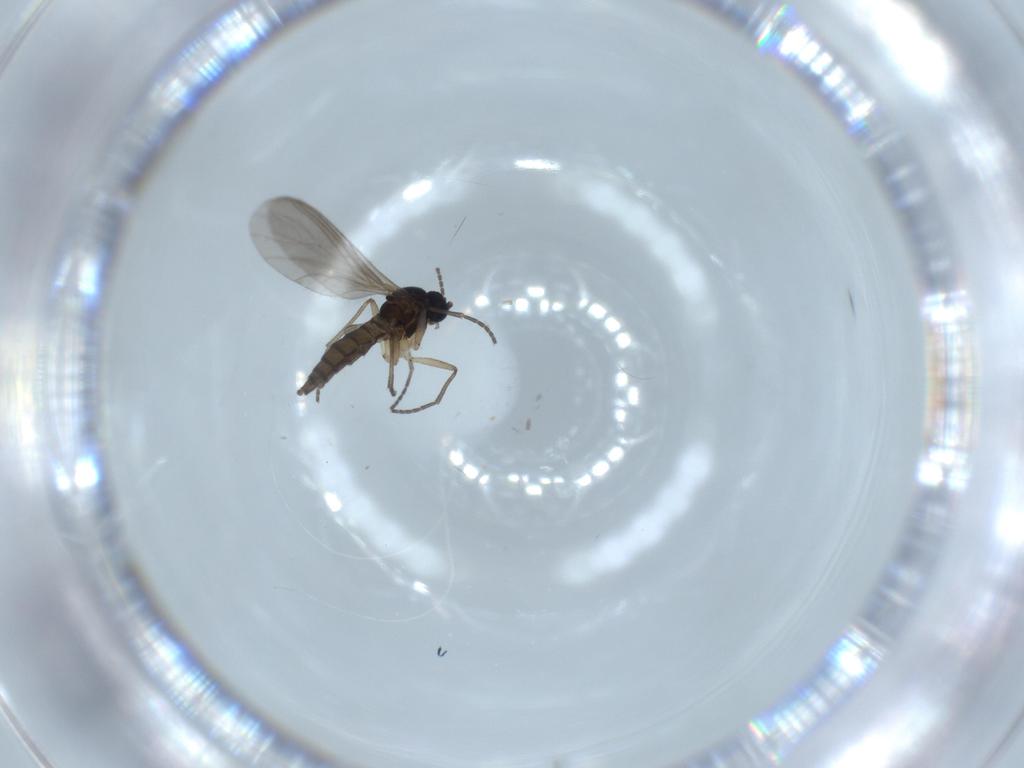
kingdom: Animalia
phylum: Arthropoda
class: Insecta
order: Diptera
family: Sciaridae
